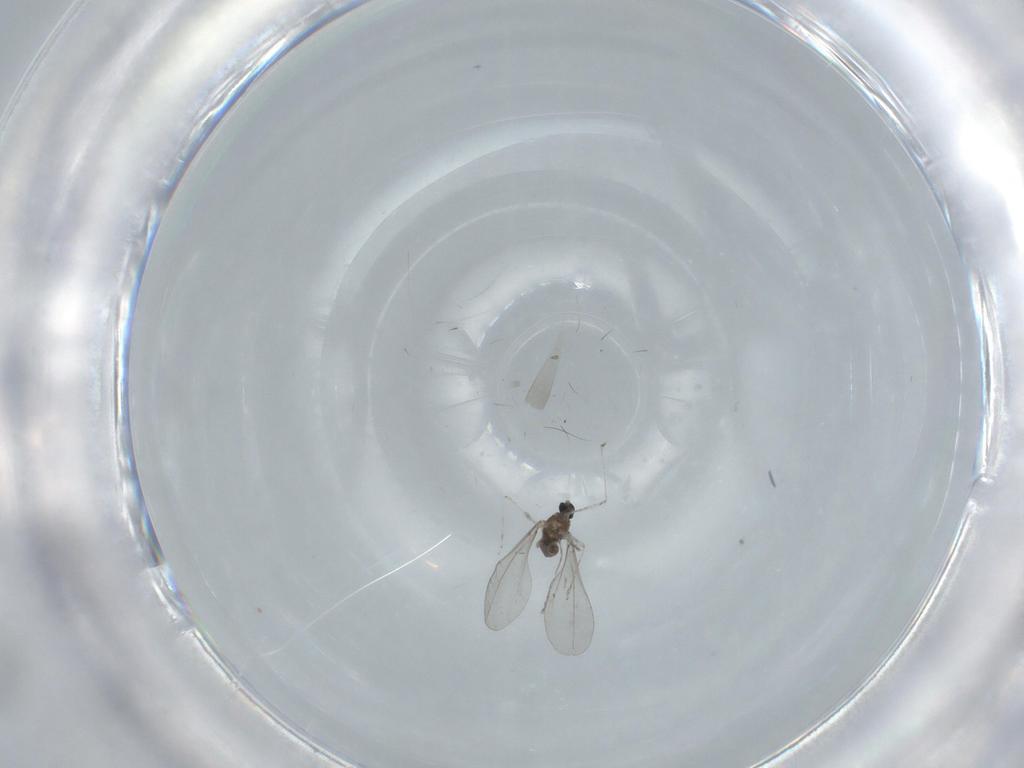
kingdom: Animalia
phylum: Arthropoda
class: Insecta
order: Diptera
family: Cecidomyiidae
